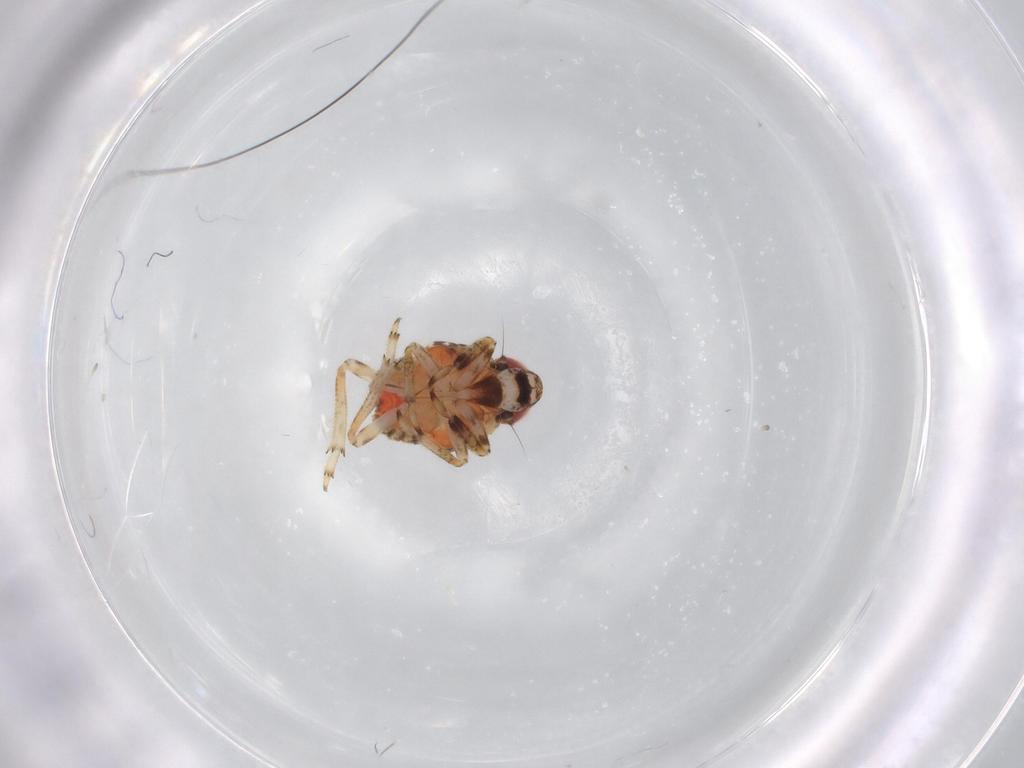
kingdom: Animalia
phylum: Arthropoda
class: Insecta
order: Hemiptera
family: Issidae
